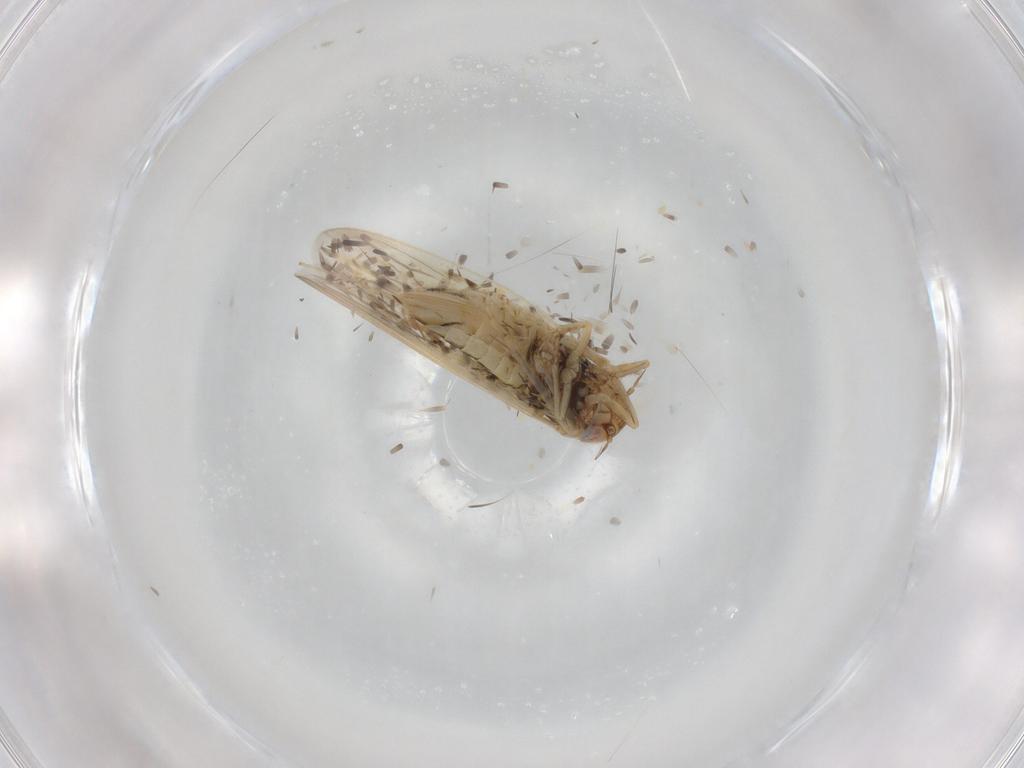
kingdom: Animalia
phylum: Arthropoda
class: Insecta
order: Hemiptera
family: Cicadellidae
